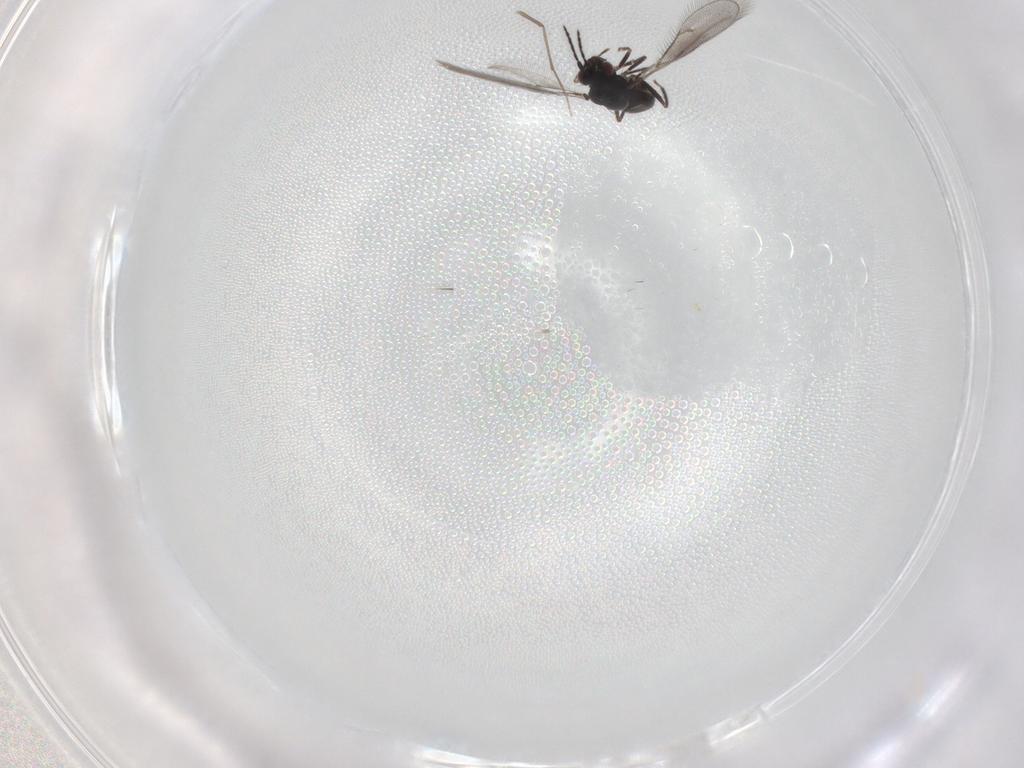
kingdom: Animalia
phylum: Arthropoda
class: Insecta
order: Hymenoptera
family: Eulophidae
